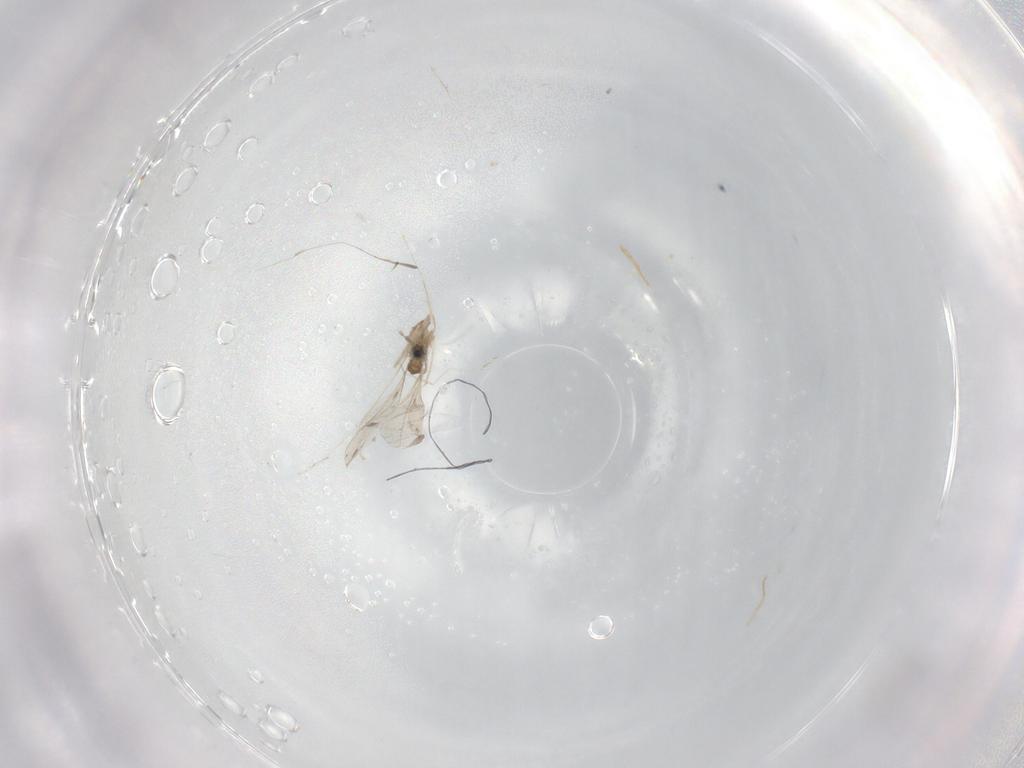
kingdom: Animalia
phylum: Arthropoda
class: Insecta
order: Diptera
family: Cecidomyiidae
